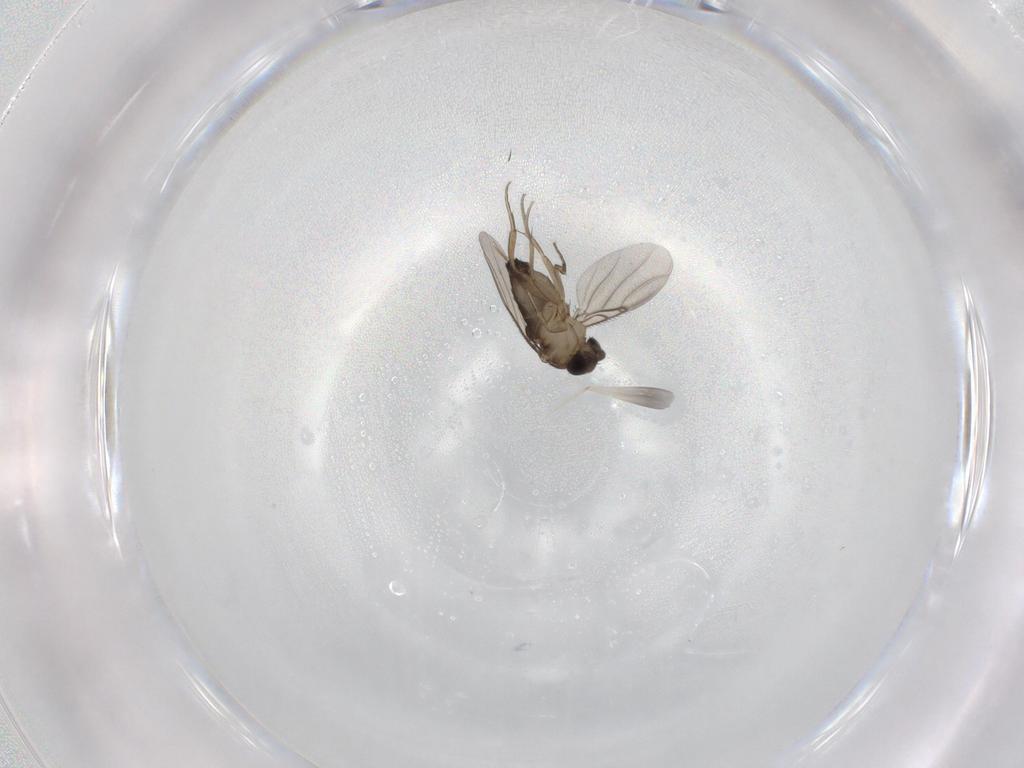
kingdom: Animalia
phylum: Arthropoda
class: Insecta
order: Diptera
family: Phoridae
